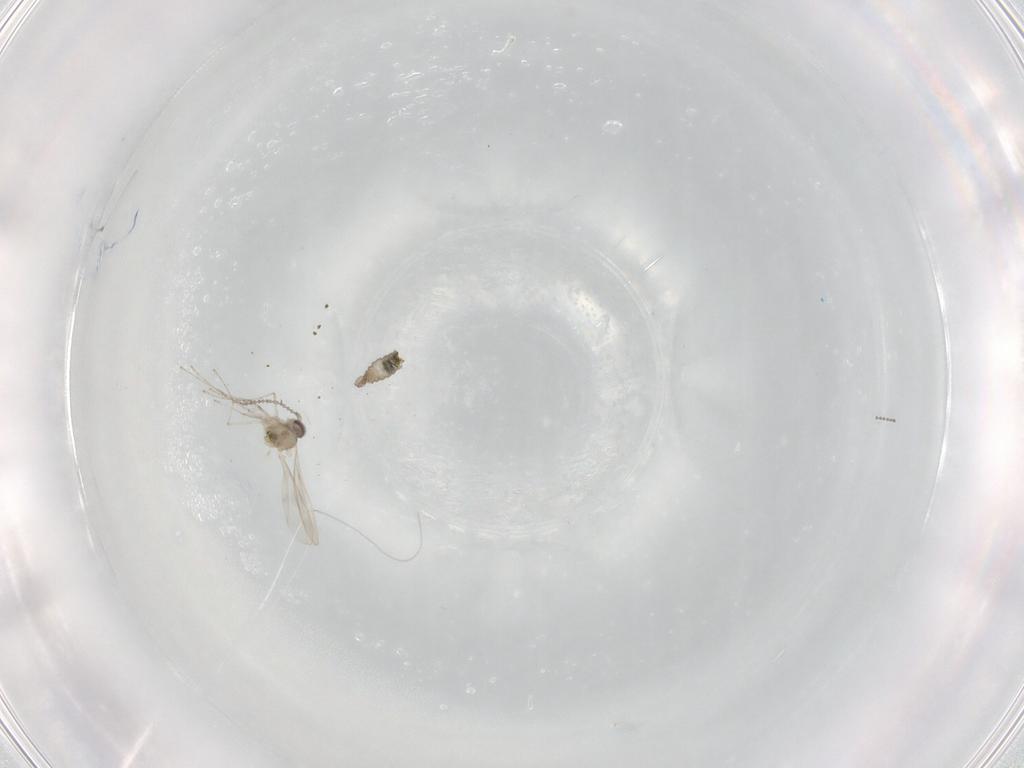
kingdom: Animalia
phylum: Arthropoda
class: Insecta
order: Diptera
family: Cecidomyiidae
